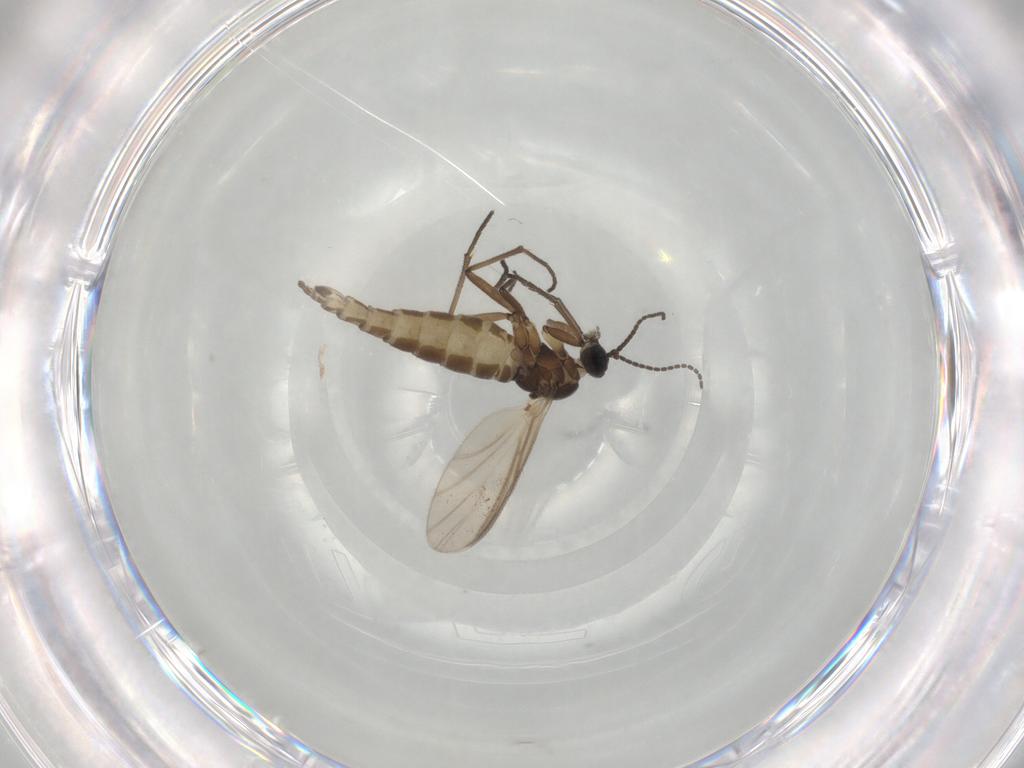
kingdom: Animalia
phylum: Arthropoda
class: Insecta
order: Diptera
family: Sciaridae
